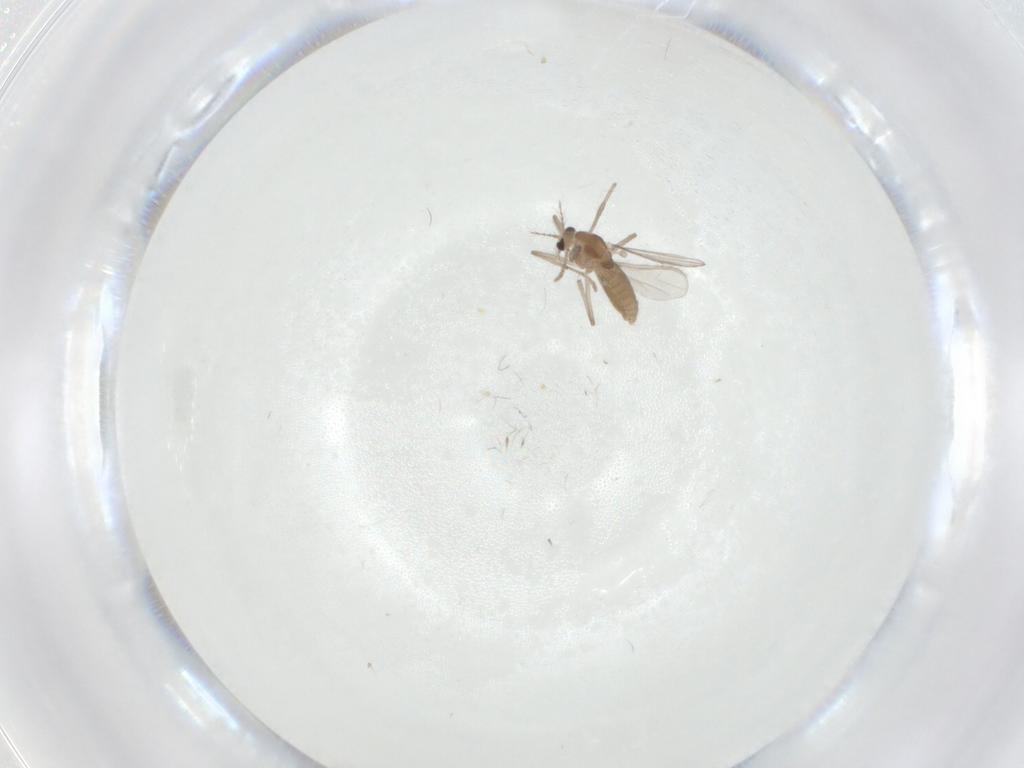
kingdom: Animalia
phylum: Arthropoda
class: Insecta
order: Diptera
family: Chironomidae
